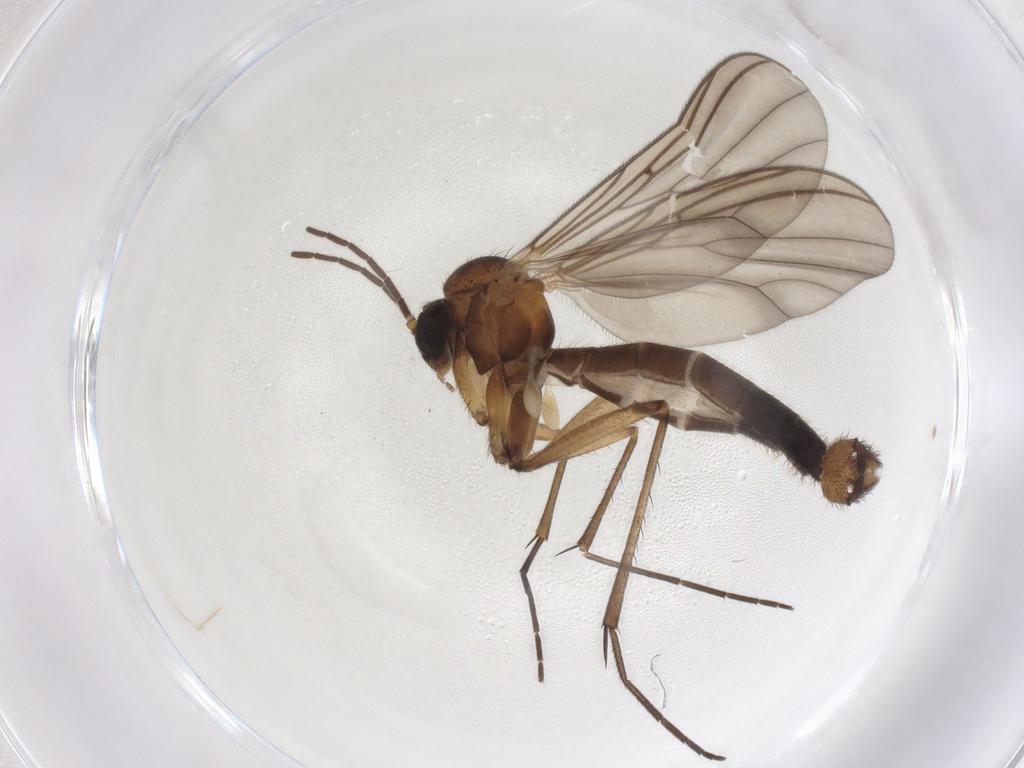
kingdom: Animalia
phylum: Arthropoda
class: Insecta
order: Diptera
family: Mycetophilidae
